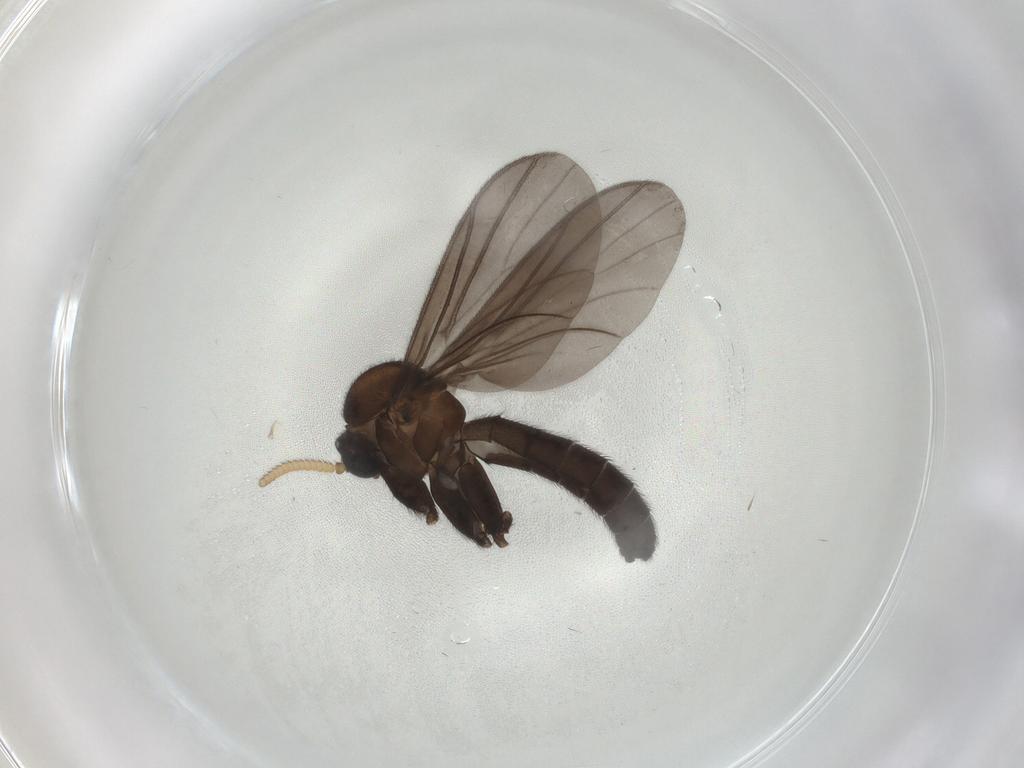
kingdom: Animalia
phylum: Arthropoda
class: Insecta
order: Diptera
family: Mycetophilidae
